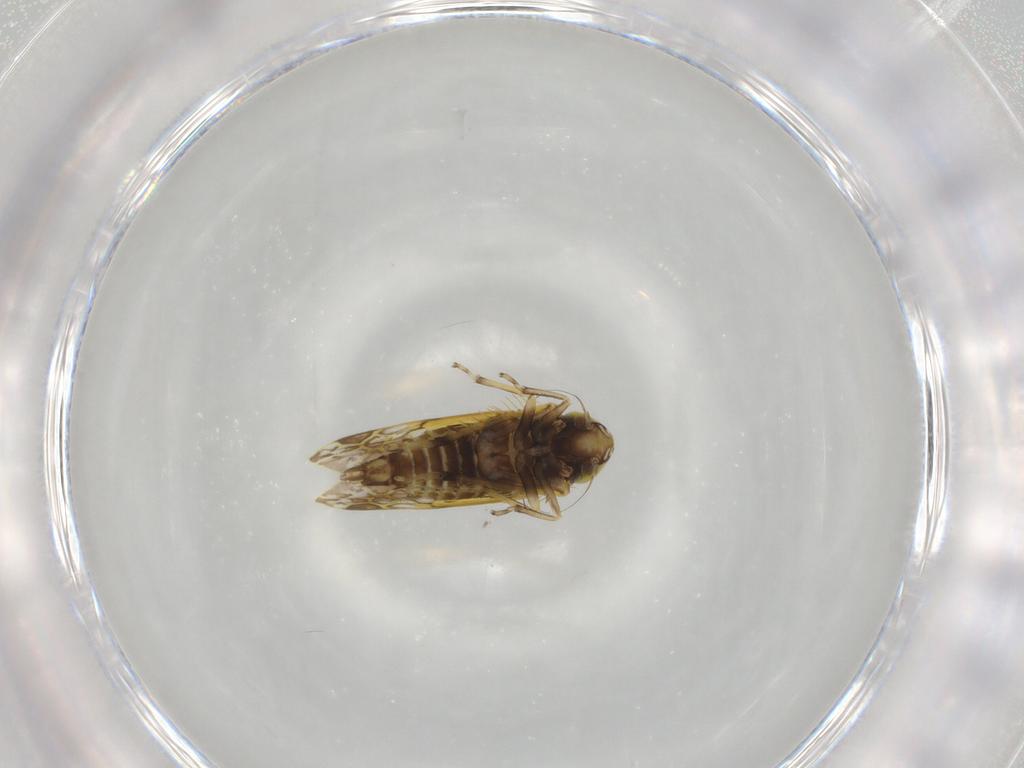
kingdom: Animalia
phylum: Arthropoda
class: Insecta
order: Hemiptera
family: Cicadellidae
